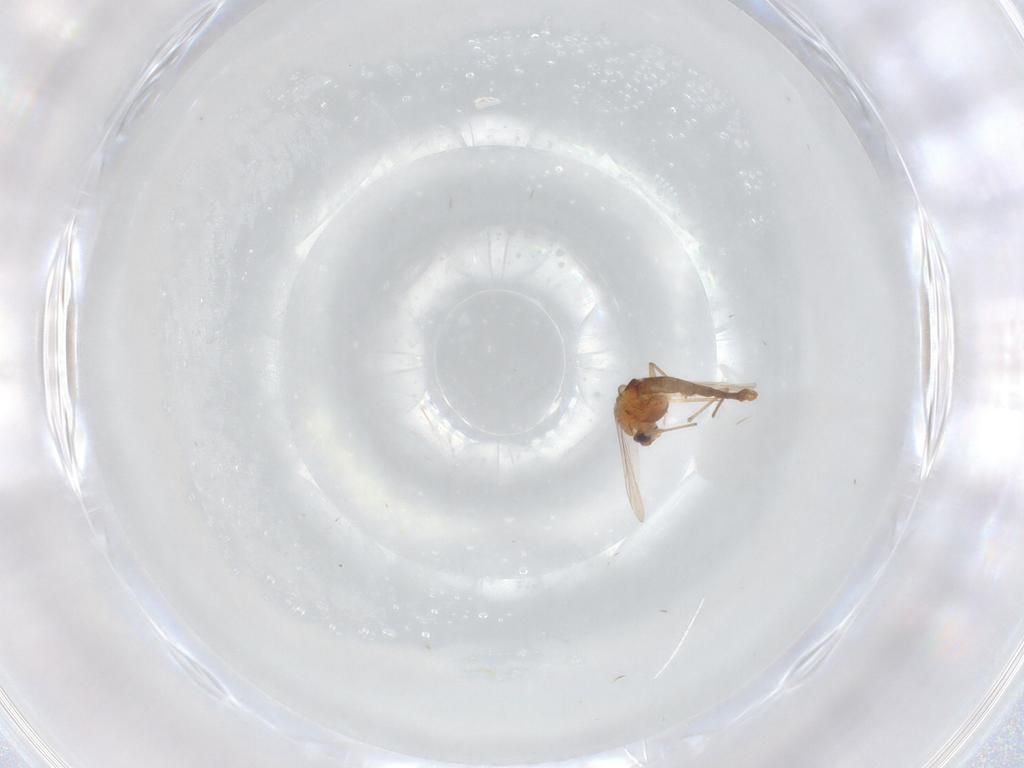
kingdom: Animalia
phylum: Arthropoda
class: Insecta
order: Diptera
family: Chironomidae
